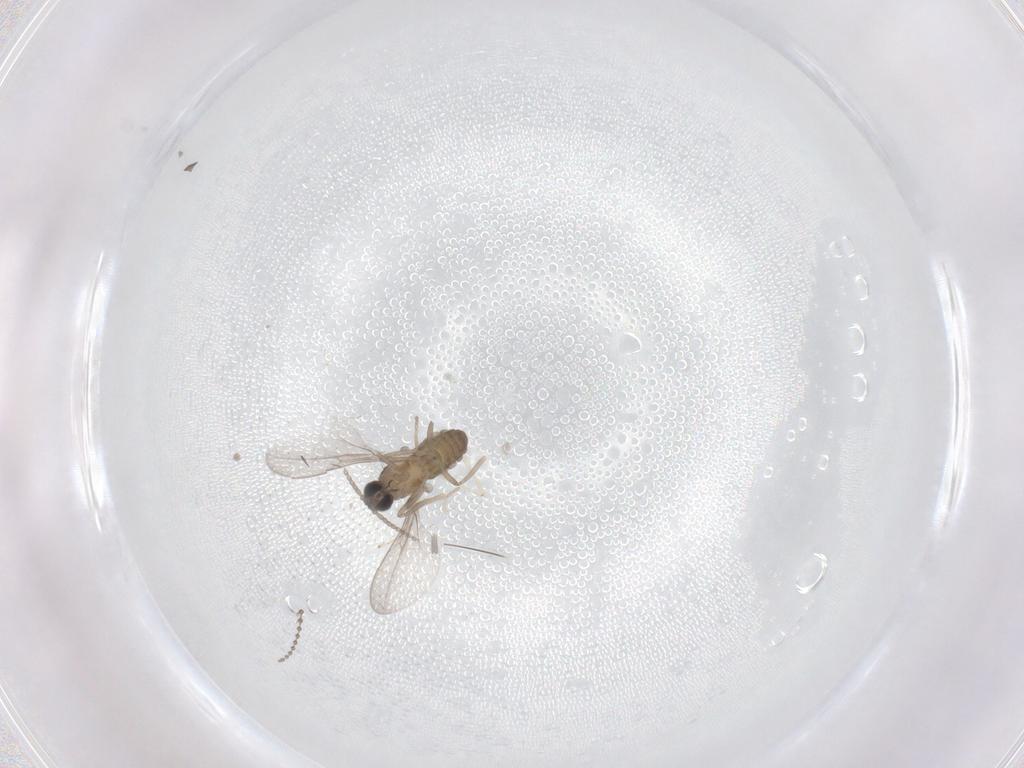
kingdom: Animalia
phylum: Arthropoda
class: Insecta
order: Diptera
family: Cecidomyiidae
